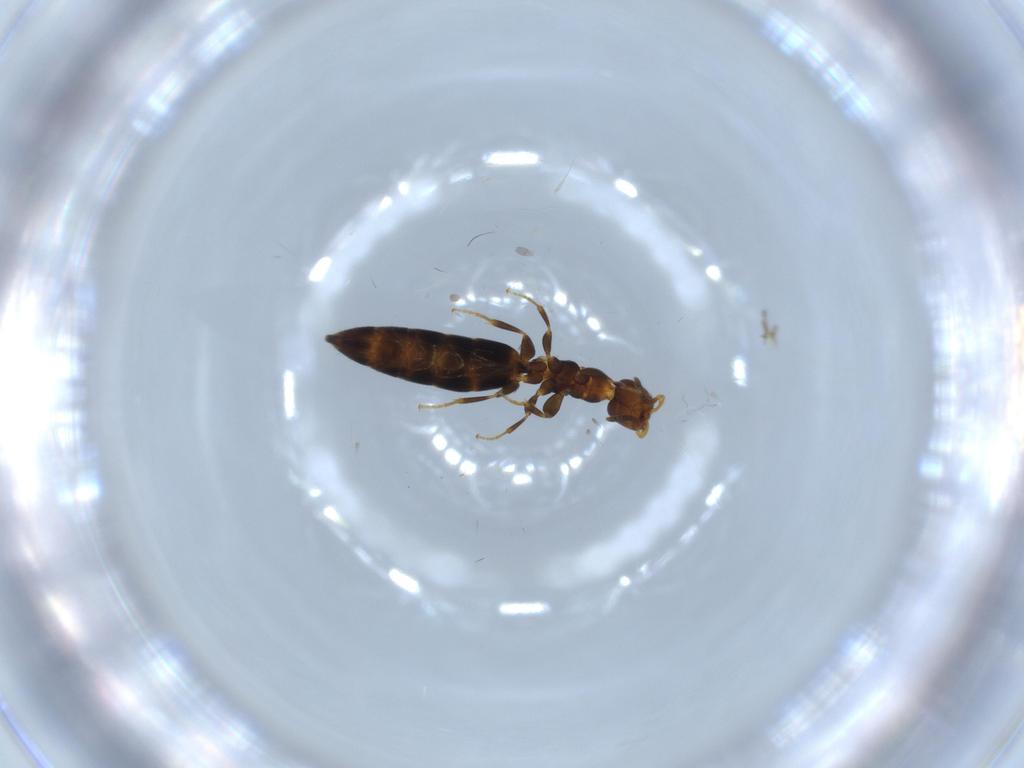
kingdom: Animalia
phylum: Arthropoda
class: Insecta
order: Hymenoptera
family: Bethylidae
